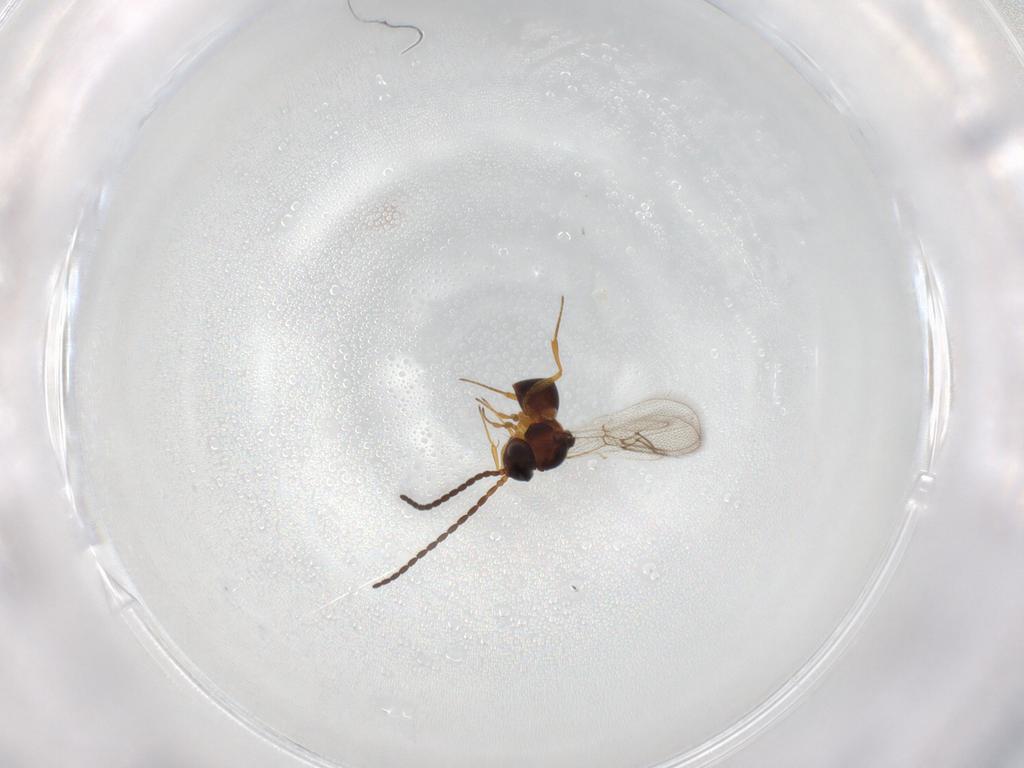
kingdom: Animalia
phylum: Arthropoda
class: Insecta
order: Hymenoptera
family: Figitidae
